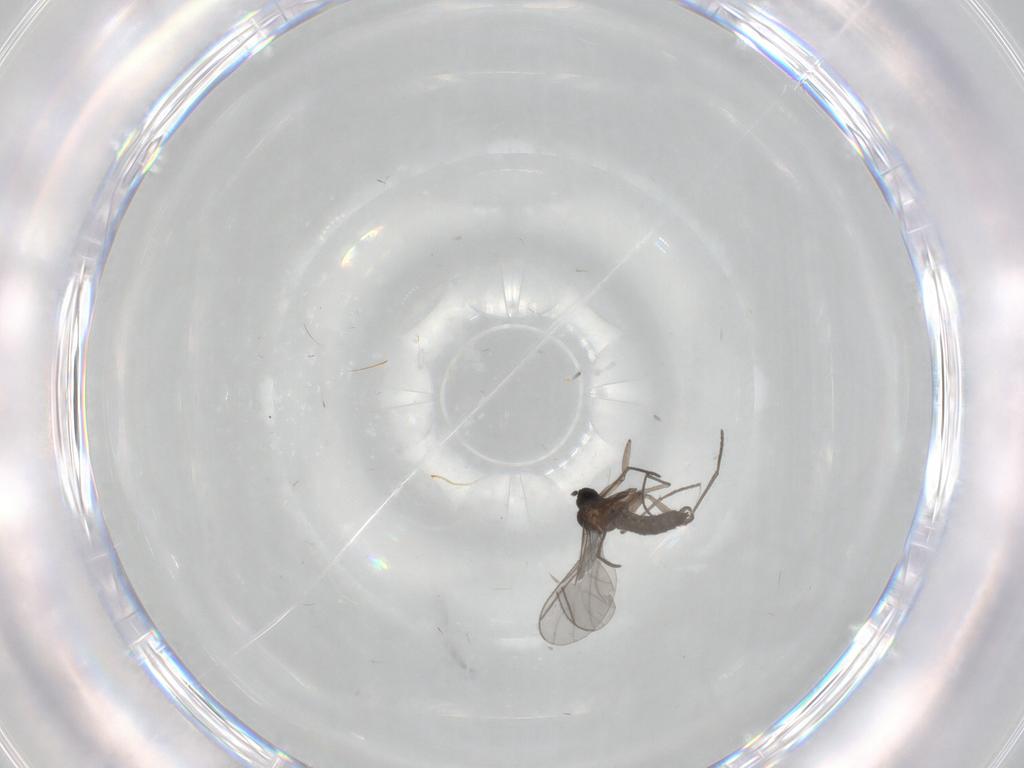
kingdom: Animalia
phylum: Arthropoda
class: Insecta
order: Diptera
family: Sciaridae
